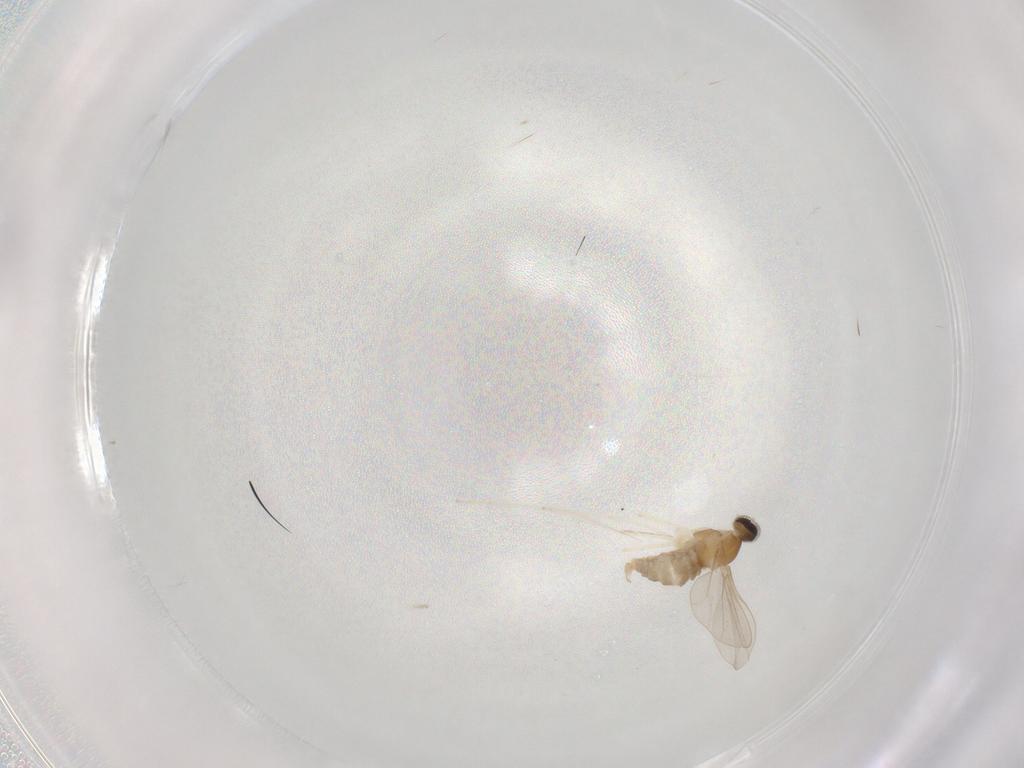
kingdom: Animalia
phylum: Arthropoda
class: Insecta
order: Diptera
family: Cecidomyiidae
